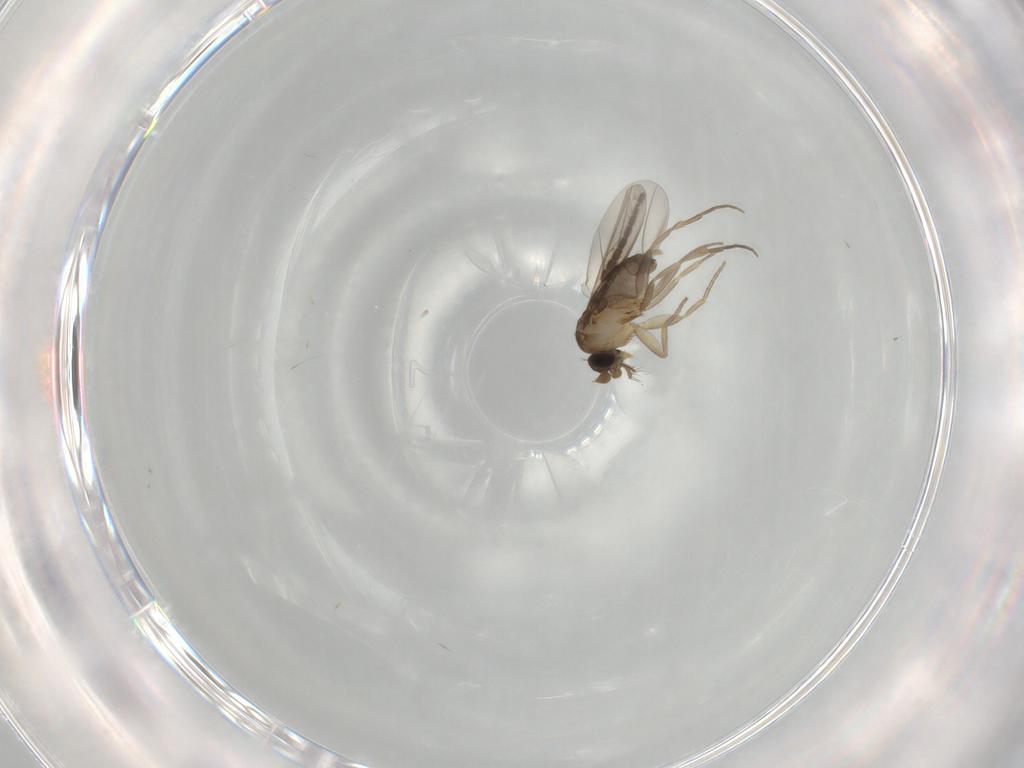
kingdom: Animalia
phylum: Arthropoda
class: Insecta
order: Diptera
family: Phoridae
